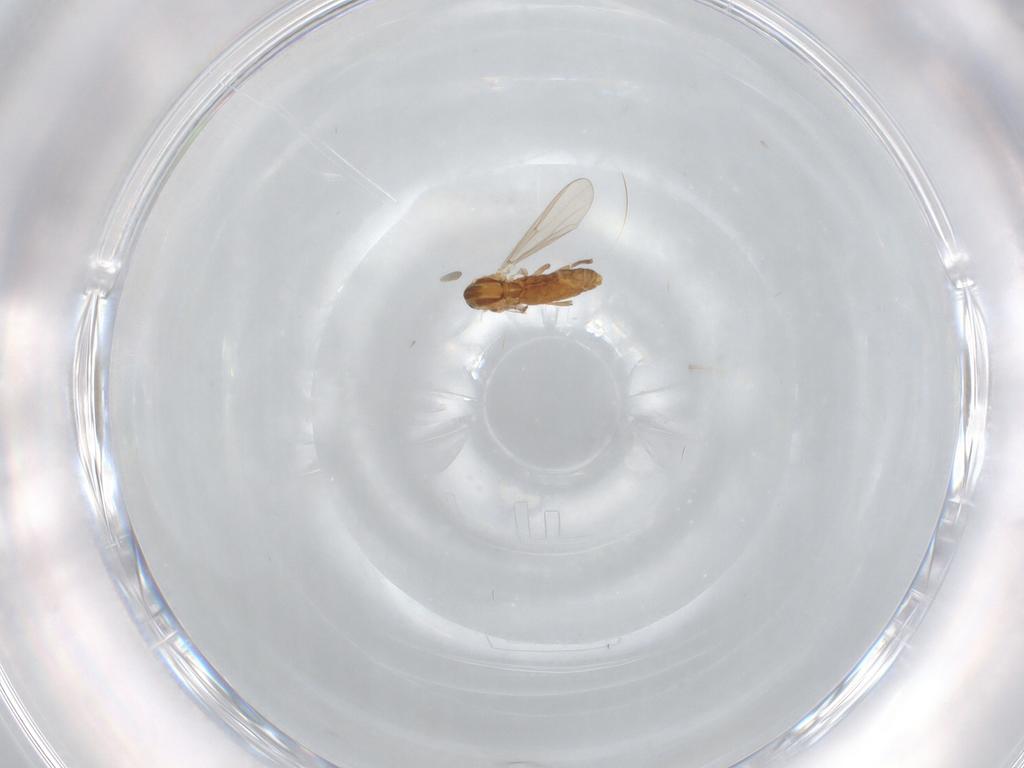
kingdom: Animalia
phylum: Arthropoda
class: Insecta
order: Diptera
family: Chironomidae
